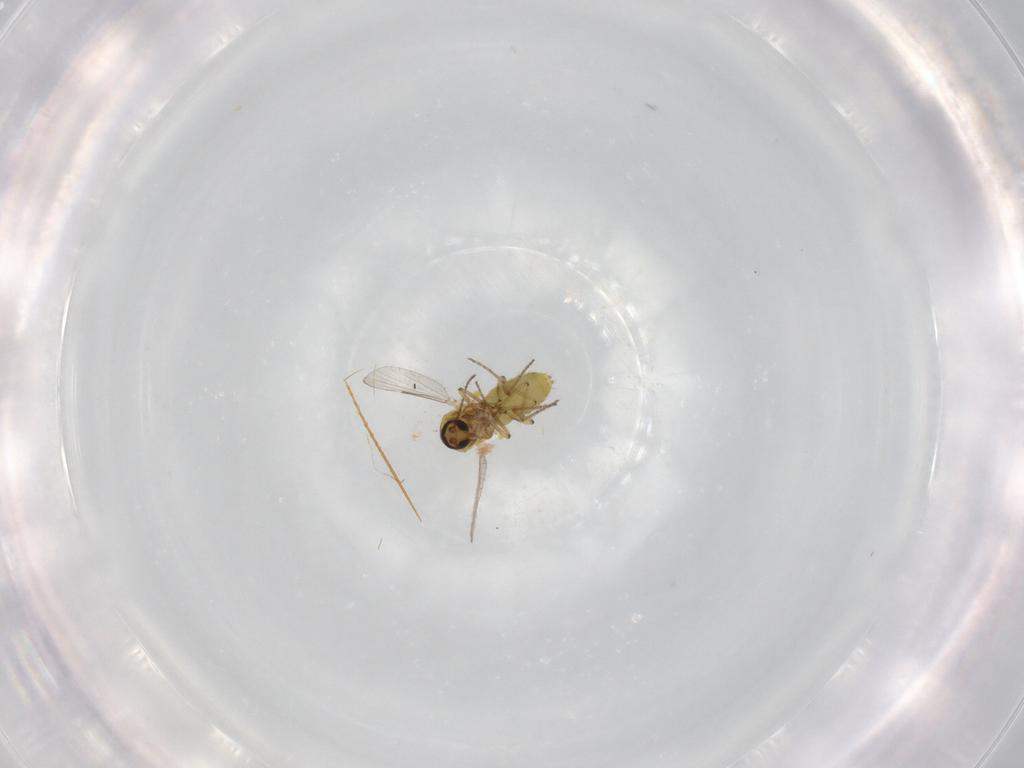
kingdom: Animalia
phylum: Arthropoda
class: Insecta
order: Diptera
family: Ceratopogonidae
